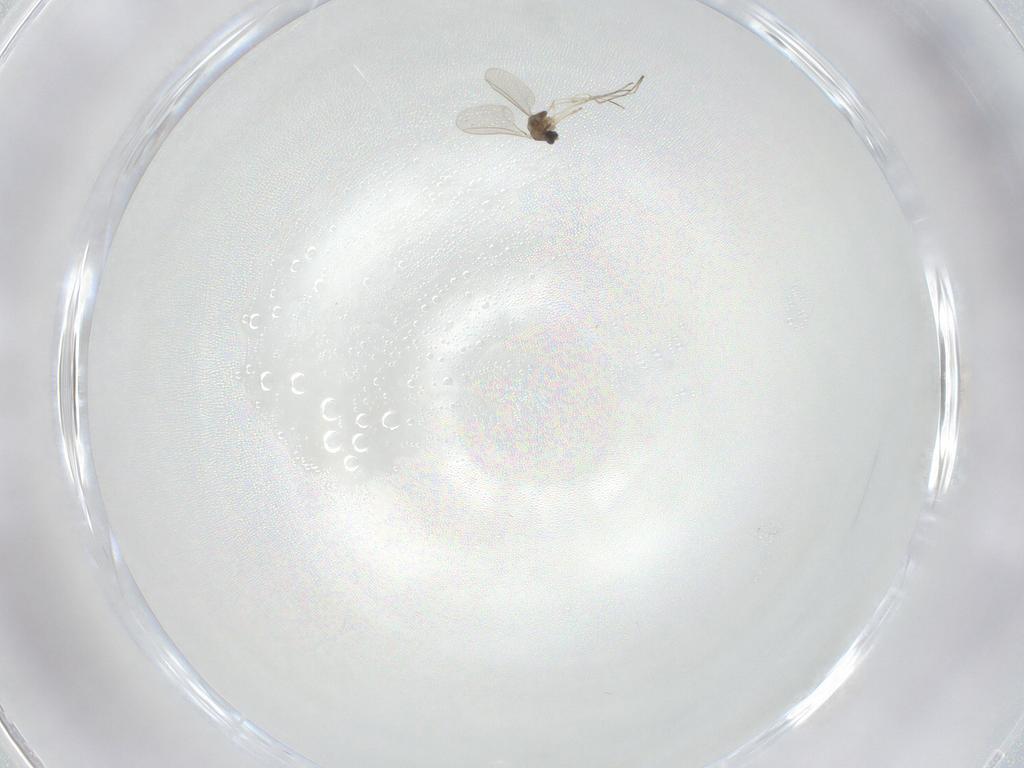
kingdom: Animalia
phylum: Arthropoda
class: Insecta
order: Diptera
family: Cecidomyiidae
